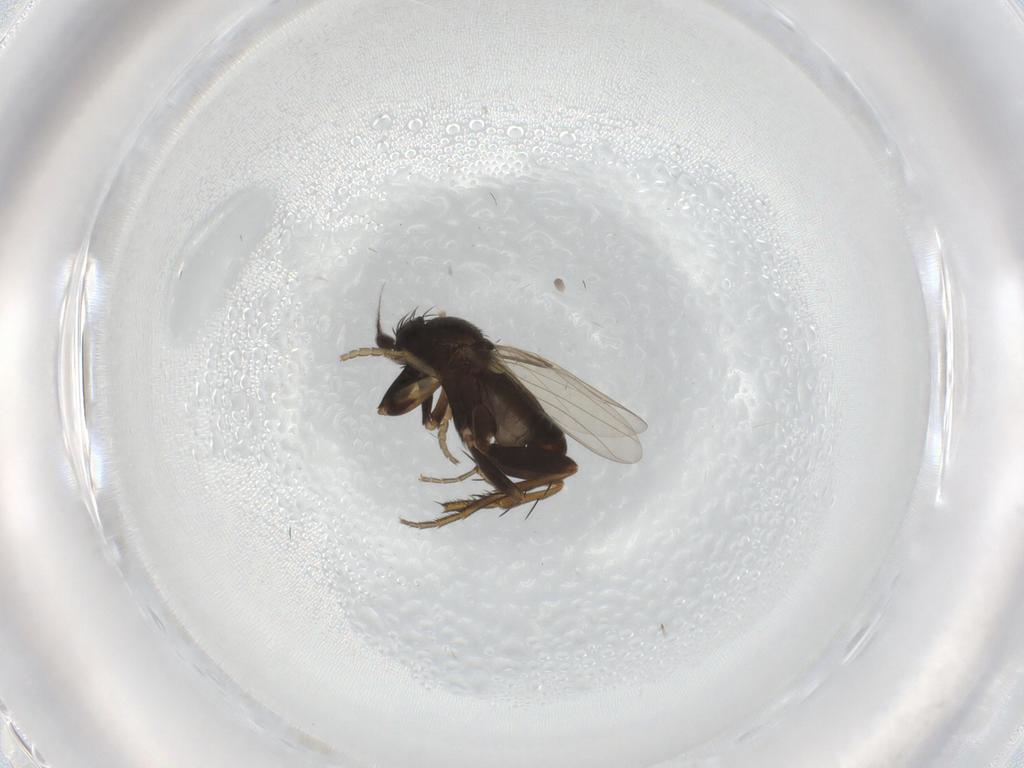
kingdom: Animalia
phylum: Arthropoda
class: Insecta
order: Diptera
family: Phoridae
